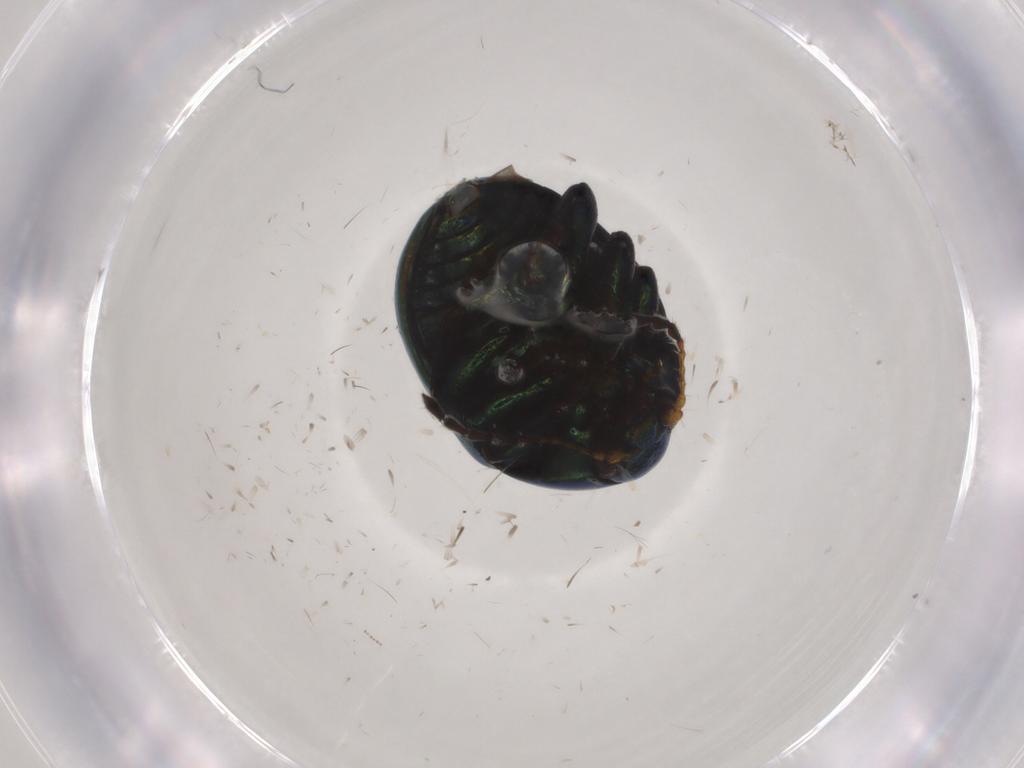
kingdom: Animalia
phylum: Arthropoda
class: Insecta
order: Coleoptera
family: Chrysomelidae
